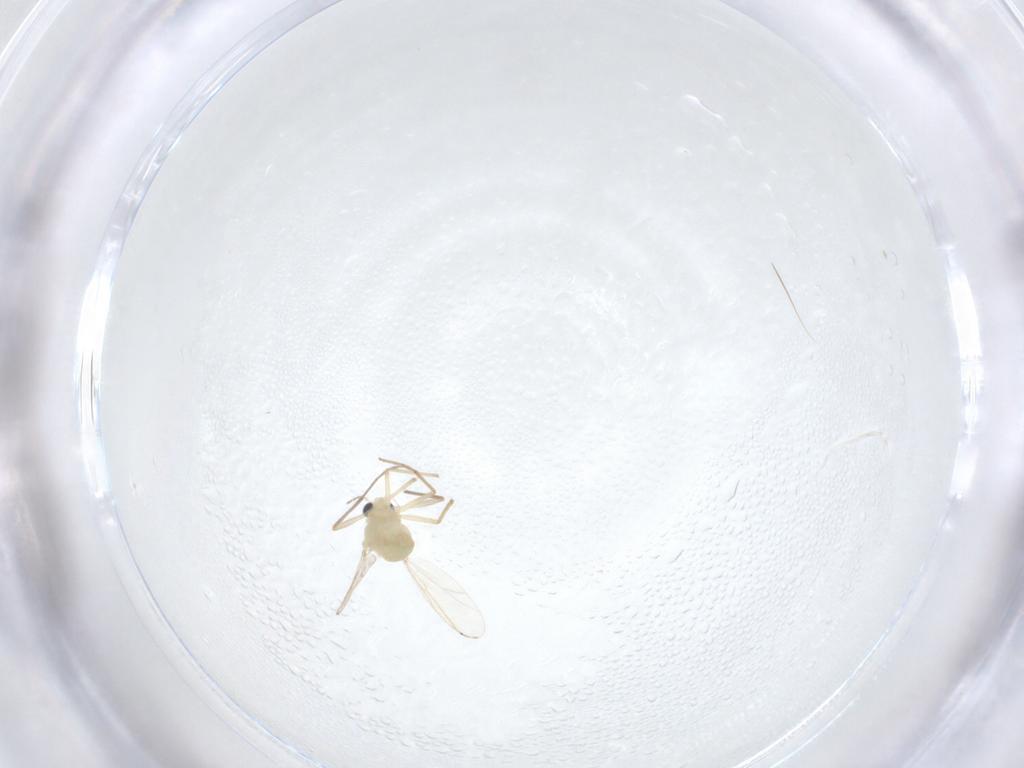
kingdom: Animalia
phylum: Arthropoda
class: Insecta
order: Diptera
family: Chironomidae
